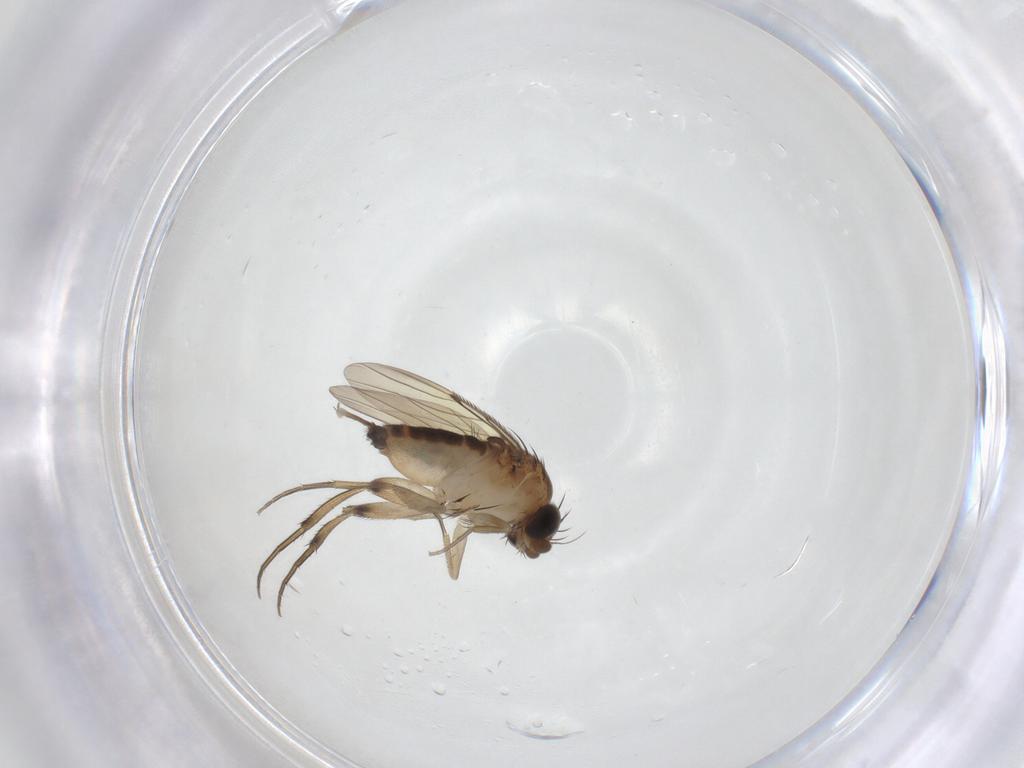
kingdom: Animalia
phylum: Arthropoda
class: Insecta
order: Diptera
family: Phoridae
